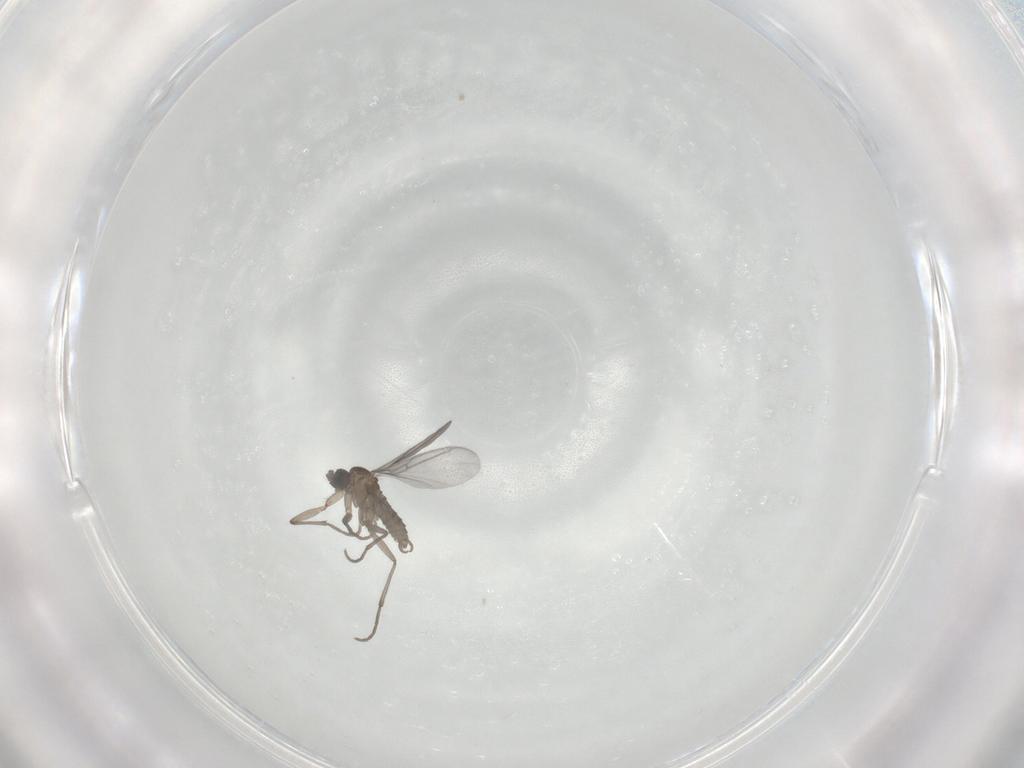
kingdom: Animalia
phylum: Arthropoda
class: Insecta
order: Diptera
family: Sciaridae
